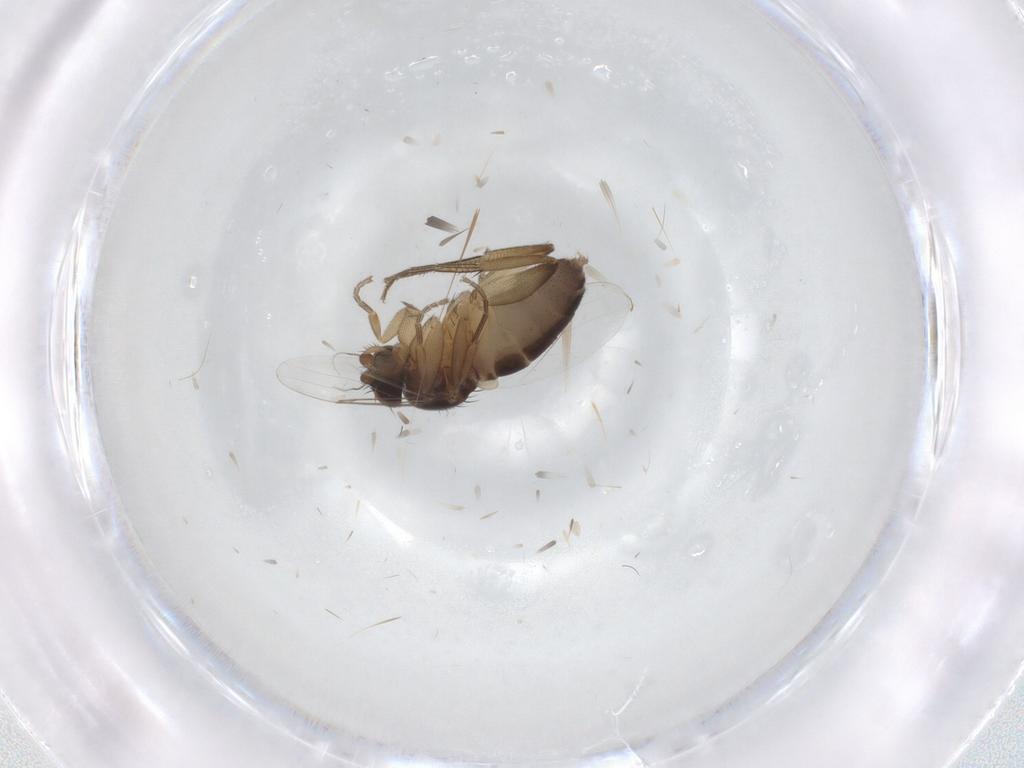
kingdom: Animalia
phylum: Arthropoda
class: Insecta
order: Diptera
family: Phoridae
